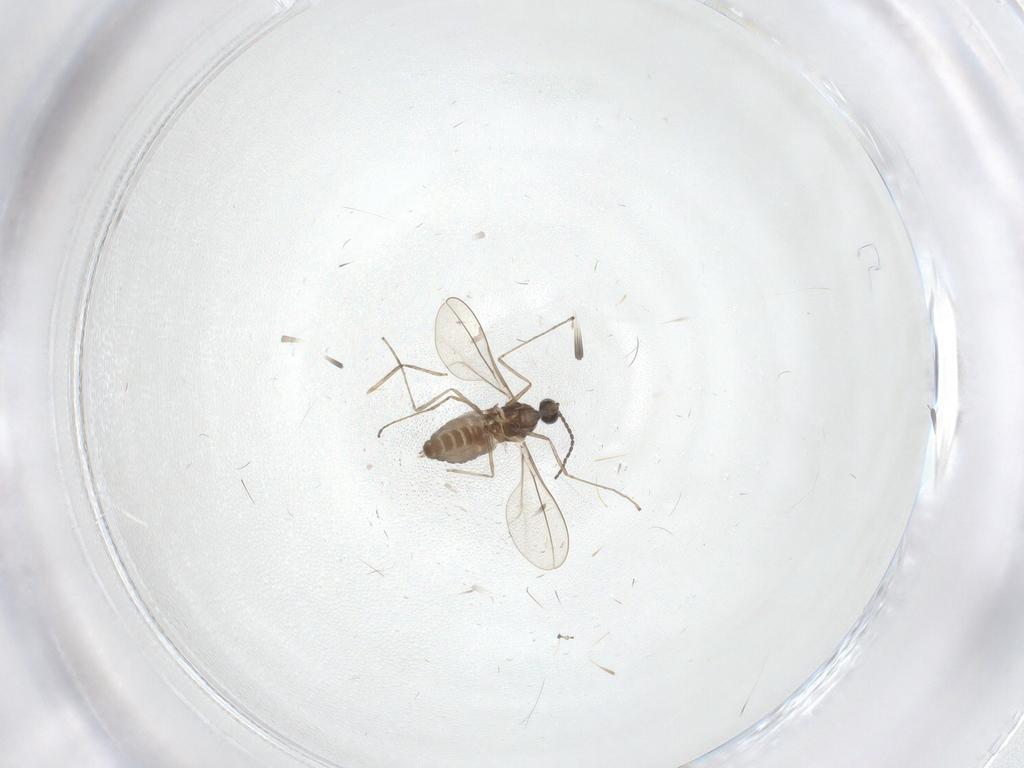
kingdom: Animalia
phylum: Arthropoda
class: Insecta
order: Diptera
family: Cecidomyiidae
